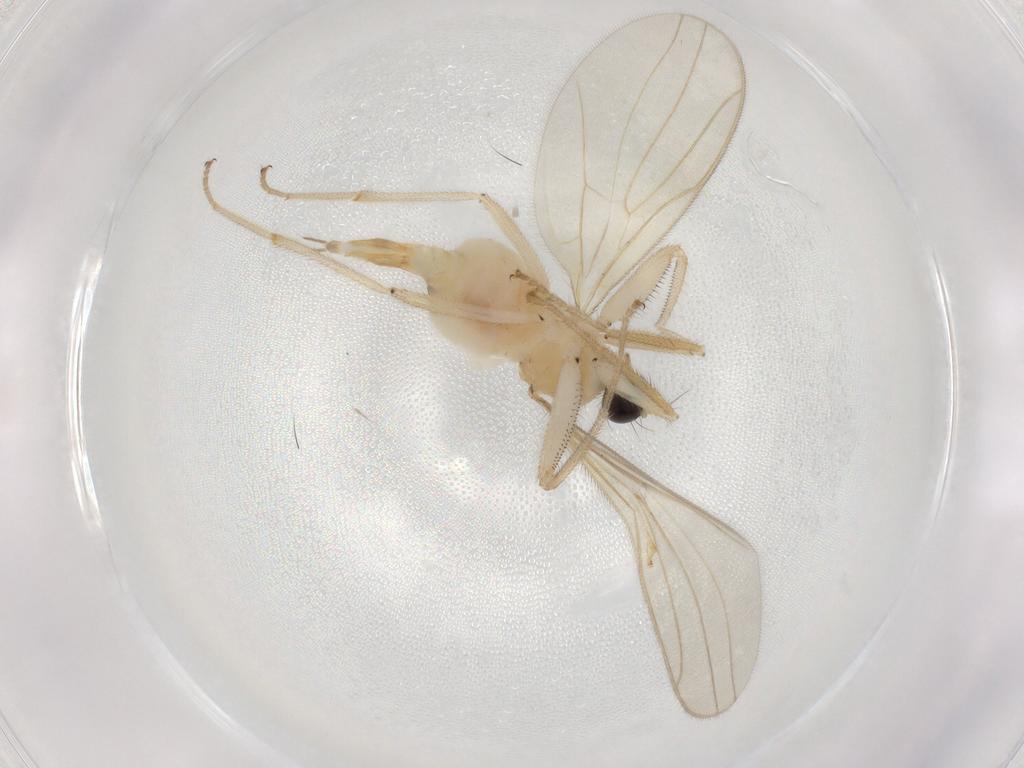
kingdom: Animalia
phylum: Arthropoda
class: Insecta
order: Diptera
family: Hybotidae
